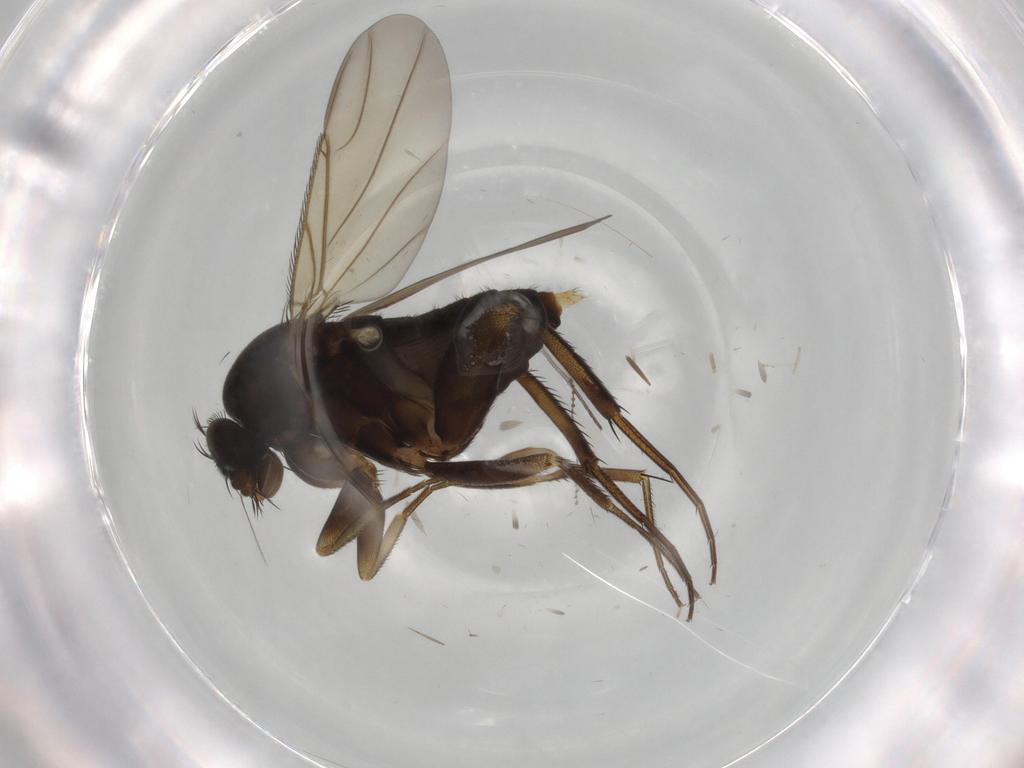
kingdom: Animalia
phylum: Arthropoda
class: Insecta
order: Diptera
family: Phoridae
